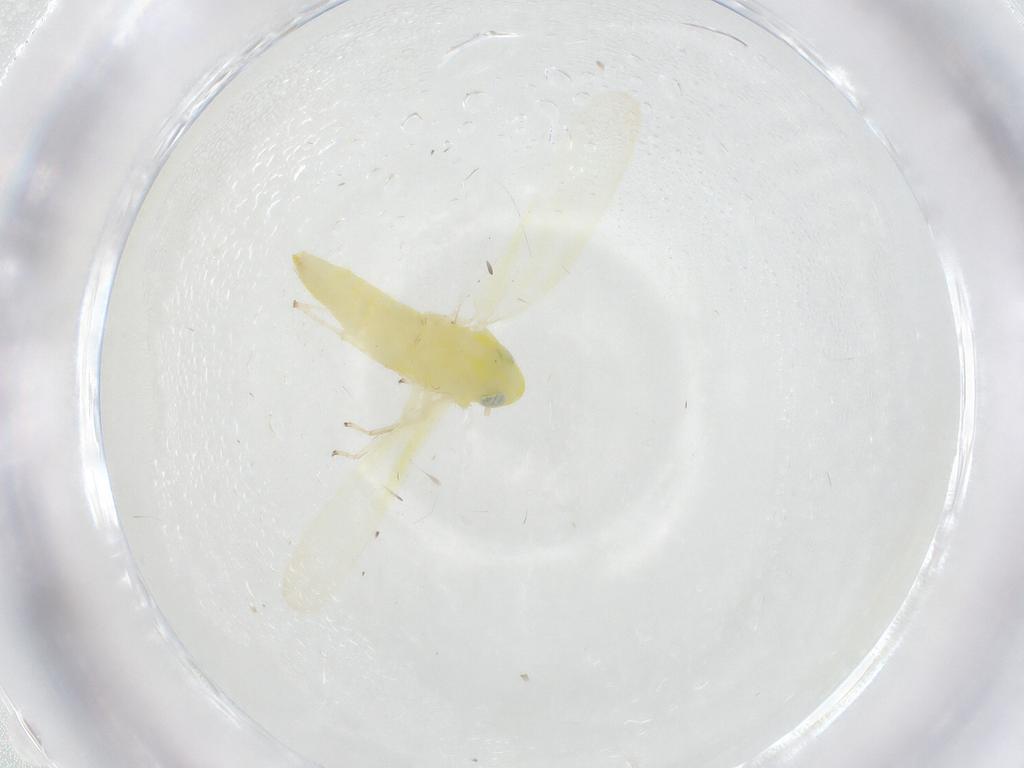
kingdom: Animalia
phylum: Arthropoda
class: Insecta
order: Hemiptera
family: Cicadellidae
